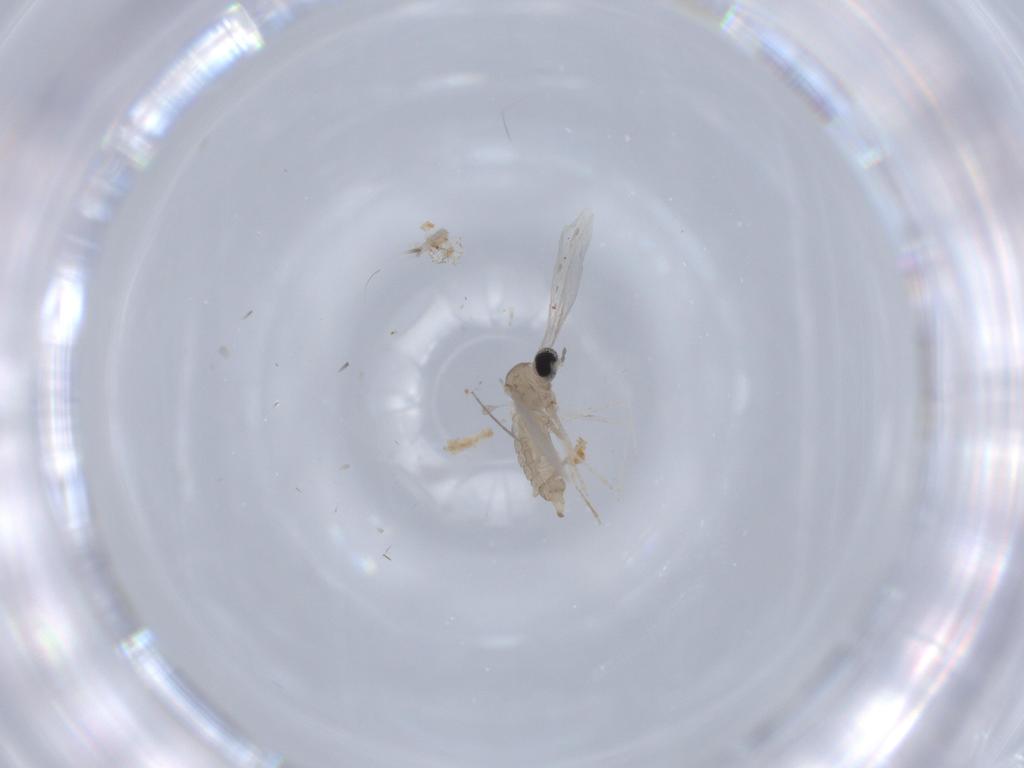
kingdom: Animalia
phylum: Arthropoda
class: Insecta
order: Diptera
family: Cecidomyiidae
